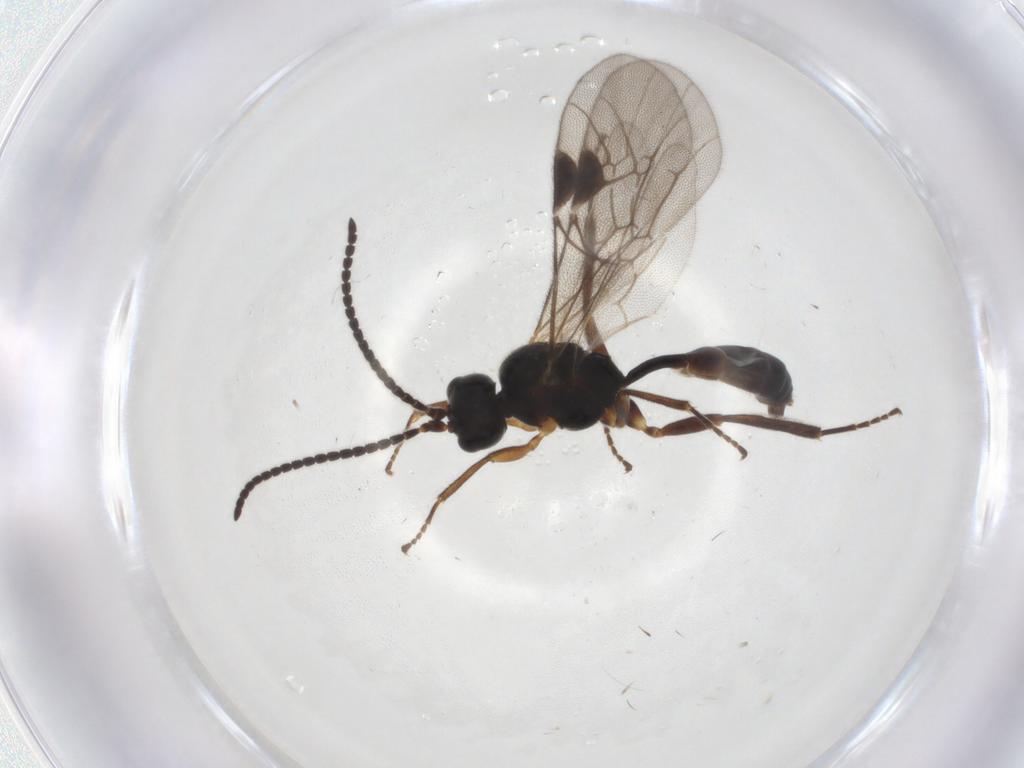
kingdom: Animalia
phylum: Arthropoda
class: Insecta
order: Hymenoptera
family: Ichneumonidae
